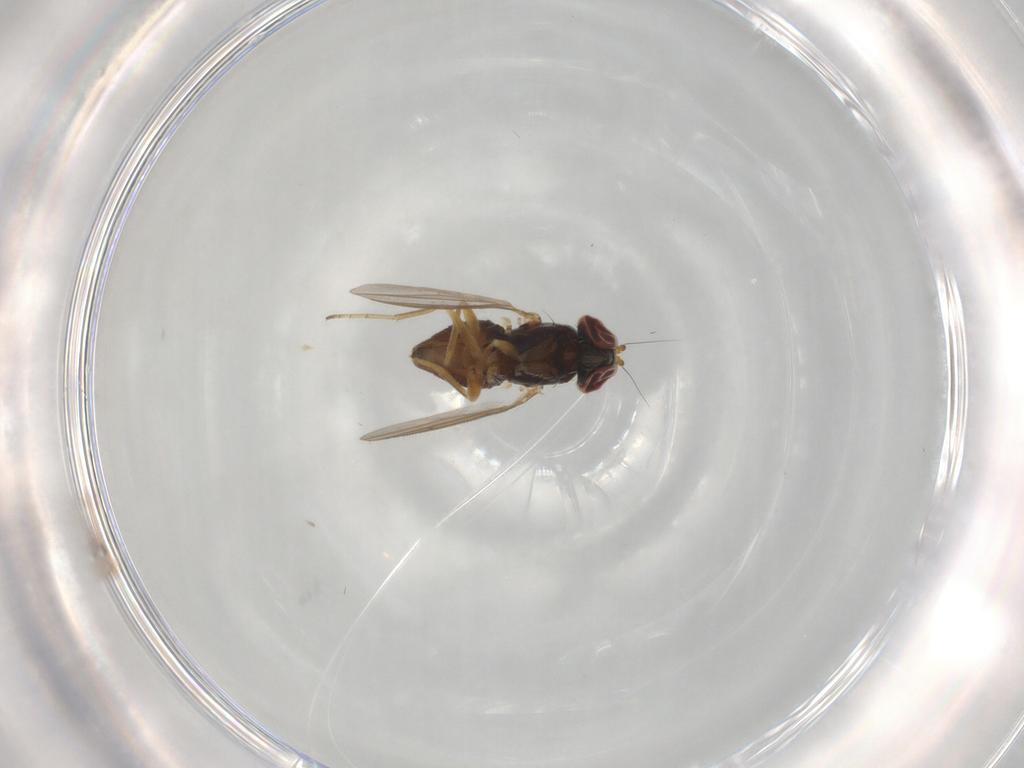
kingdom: Animalia
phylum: Arthropoda
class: Insecta
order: Diptera
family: Dolichopodidae
